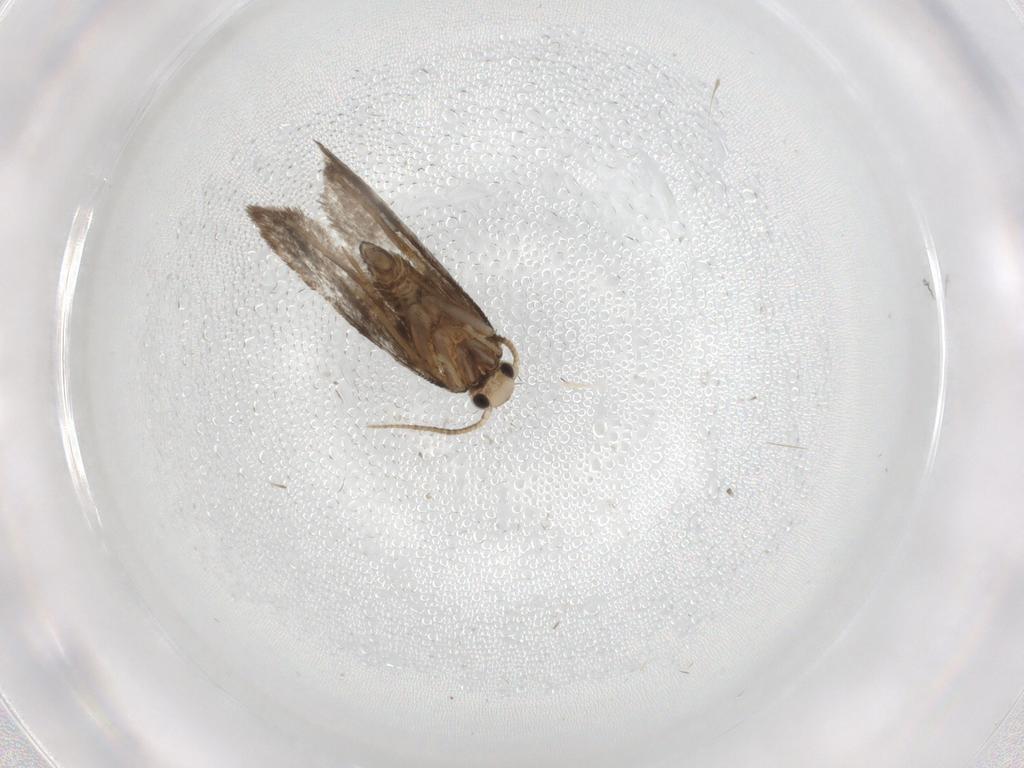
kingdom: Animalia
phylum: Arthropoda
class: Insecta
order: Lepidoptera
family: Psychidae
